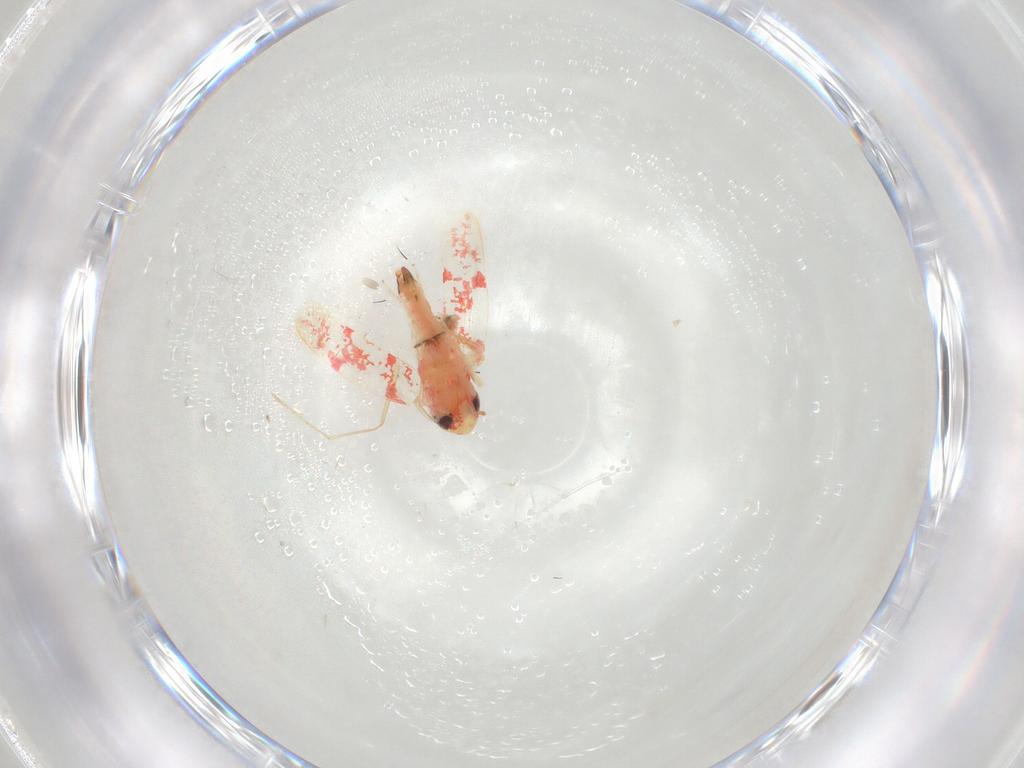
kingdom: Animalia
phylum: Arthropoda
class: Insecta
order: Hemiptera
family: Cicadellidae
